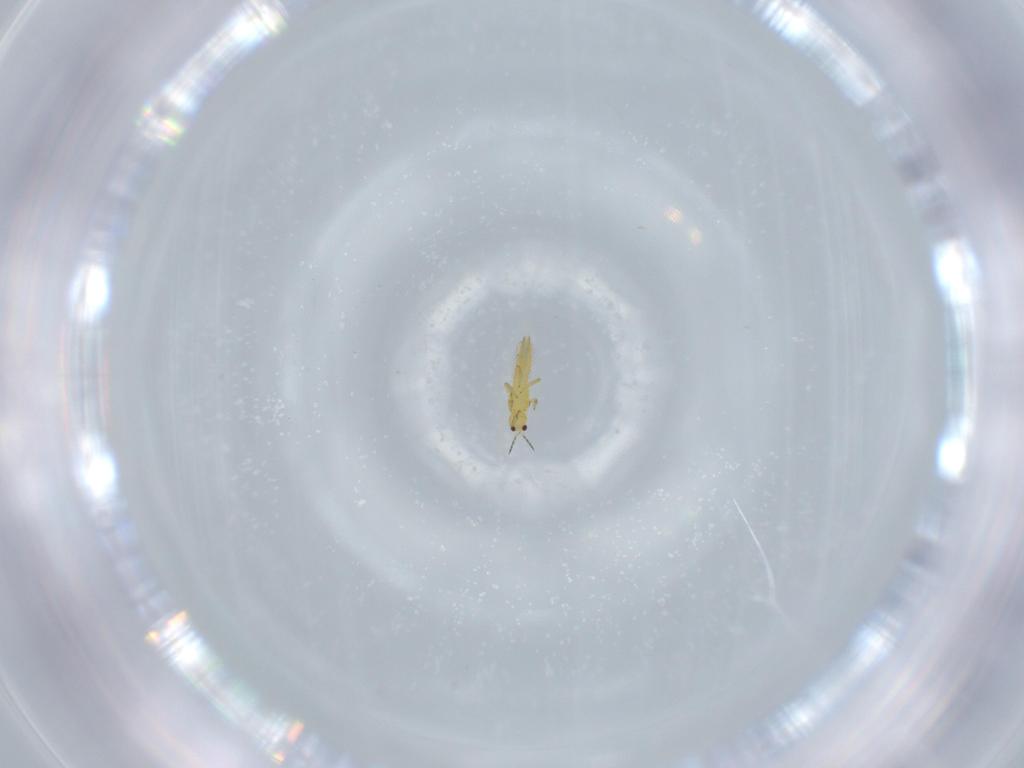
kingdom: Animalia
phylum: Arthropoda
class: Insecta
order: Thysanoptera
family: Thripidae
